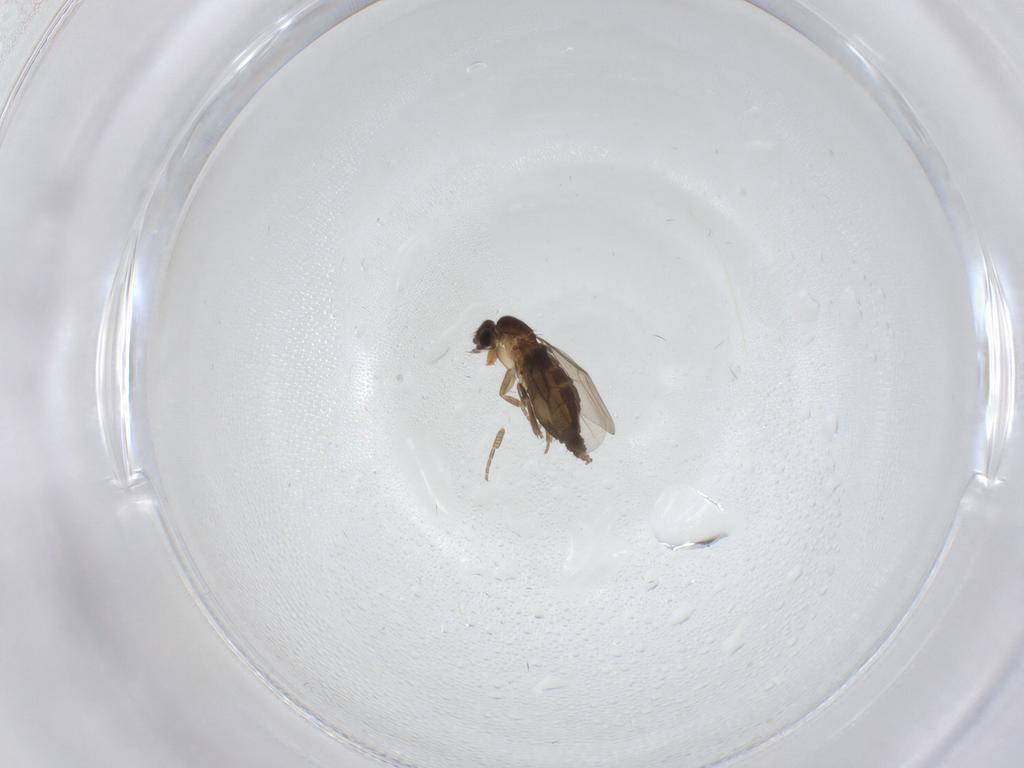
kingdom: Animalia
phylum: Arthropoda
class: Insecta
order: Diptera
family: Phoridae
